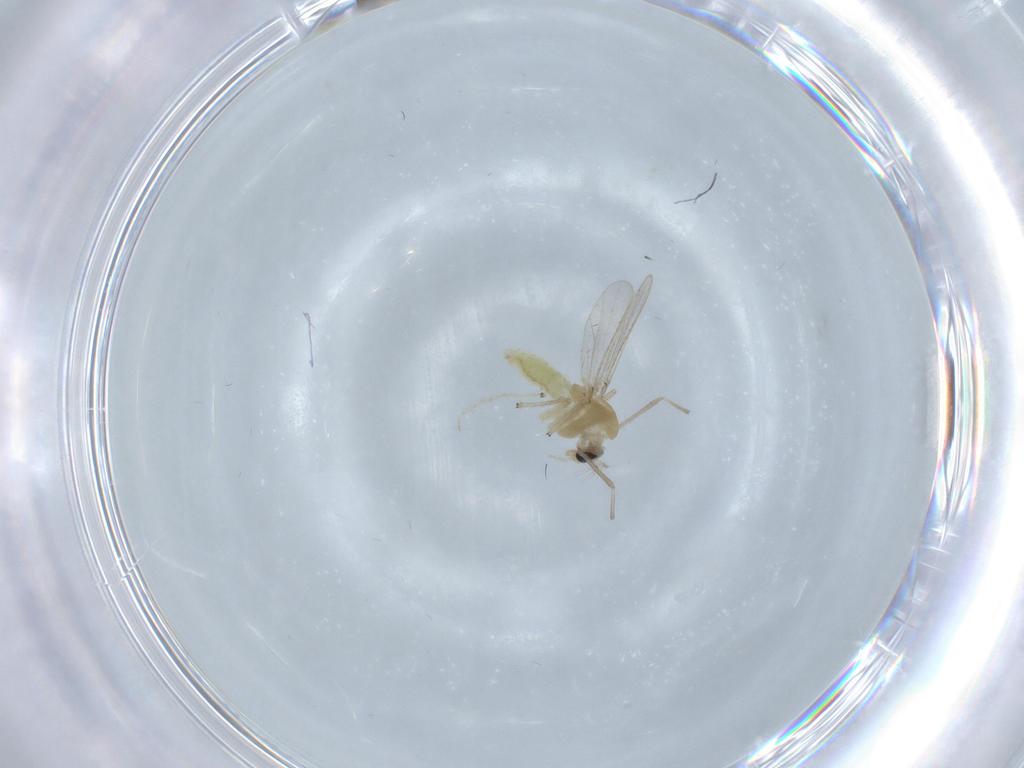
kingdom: Animalia
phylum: Arthropoda
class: Insecta
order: Diptera
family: Chironomidae
